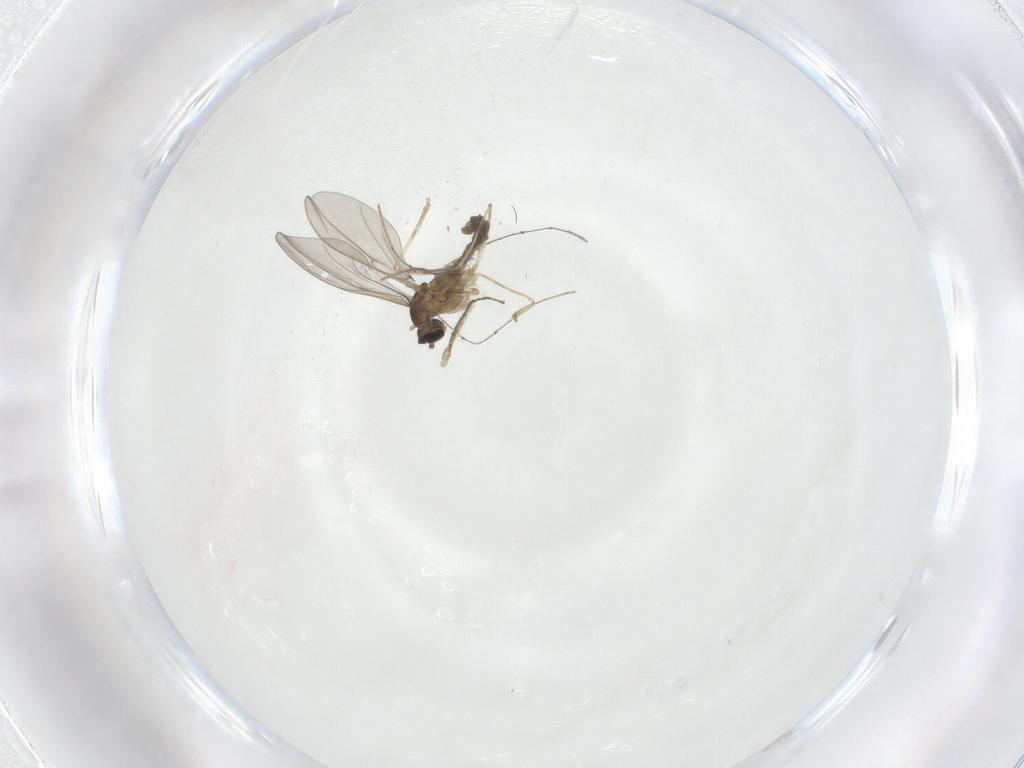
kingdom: Animalia
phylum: Arthropoda
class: Insecta
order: Diptera
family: Cecidomyiidae
